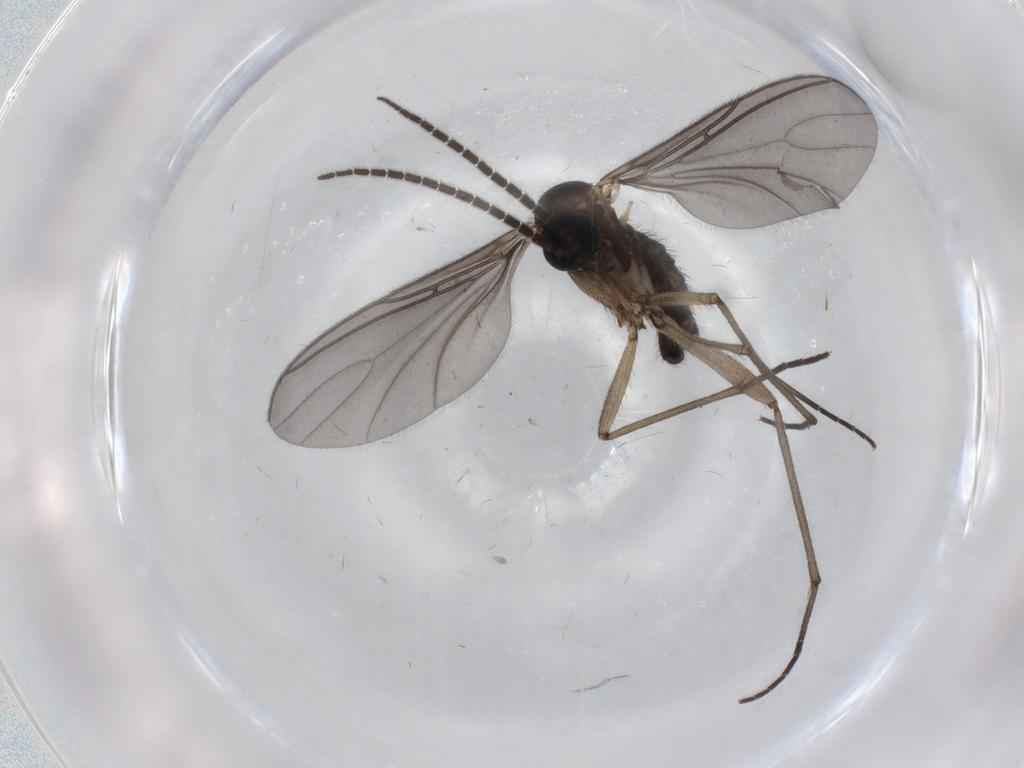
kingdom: Animalia
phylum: Arthropoda
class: Insecta
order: Diptera
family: Sciaridae
